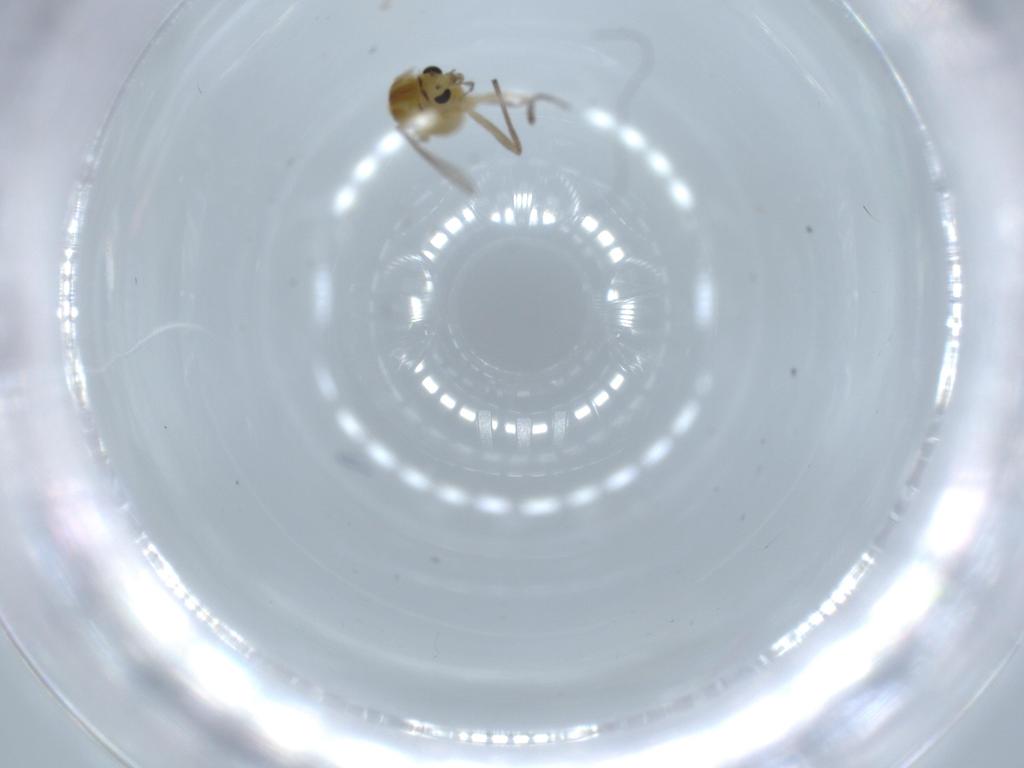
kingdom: Animalia
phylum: Arthropoda
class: Insecta
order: Diptera
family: Chironomidae
